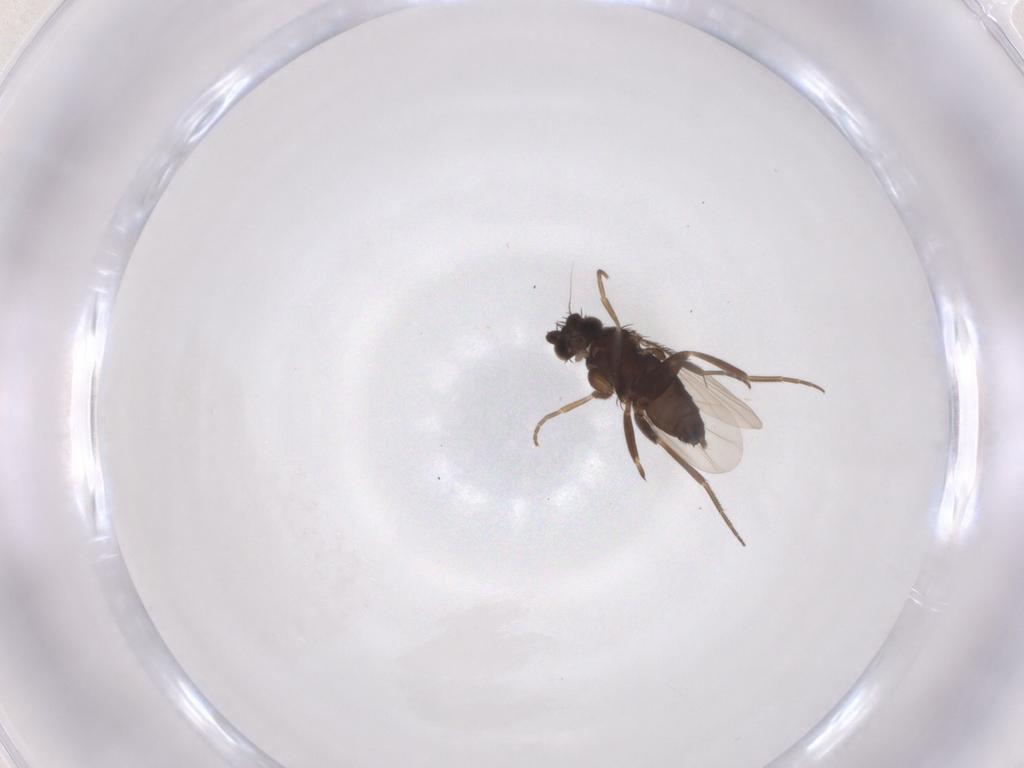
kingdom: Animalia
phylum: Arthropoda
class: Insecta
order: Diptera
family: Phoridae
